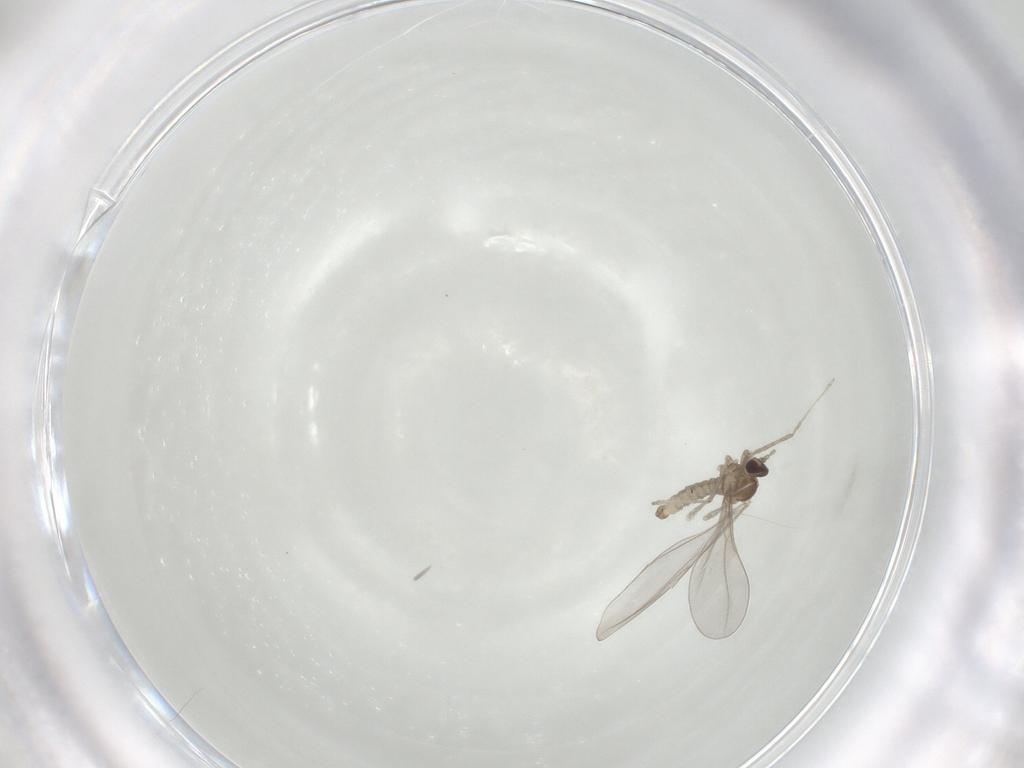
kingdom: Animalia
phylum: Arthropoda
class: Insecta
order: Diptera
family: Cecidomyiidae
